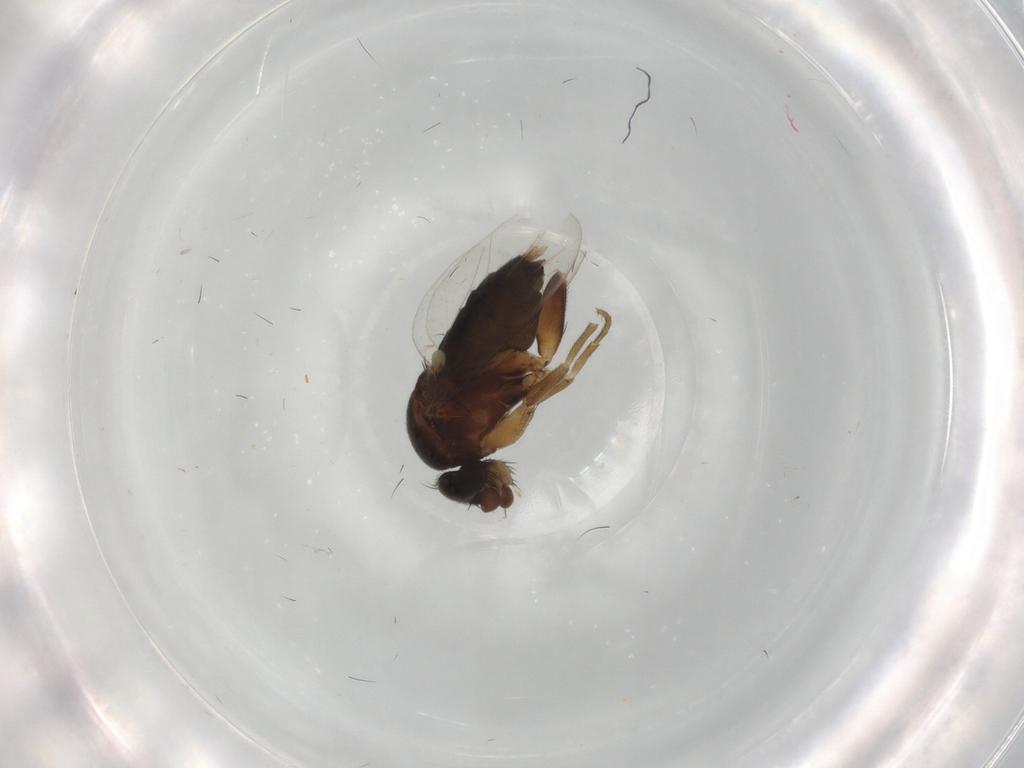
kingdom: Animalia
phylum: Arthropoda
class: Insecta
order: Diptera
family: Phoridae
